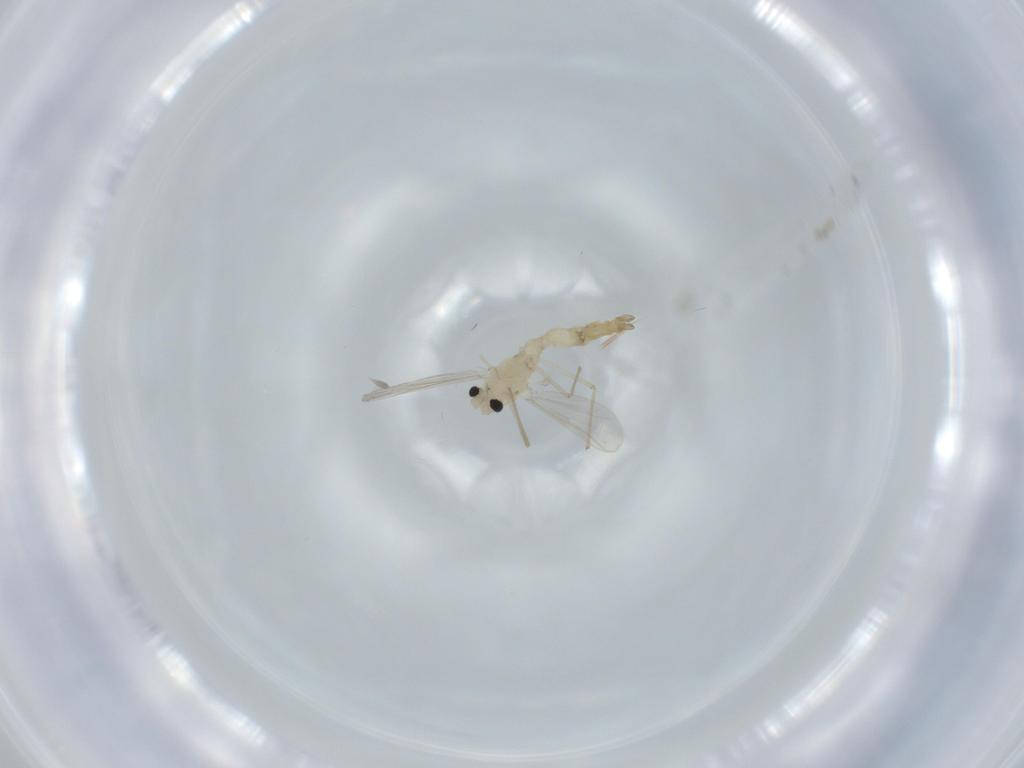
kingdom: Animalia
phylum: Arthropoda
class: Insecta
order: Diptera
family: Chironomidae
